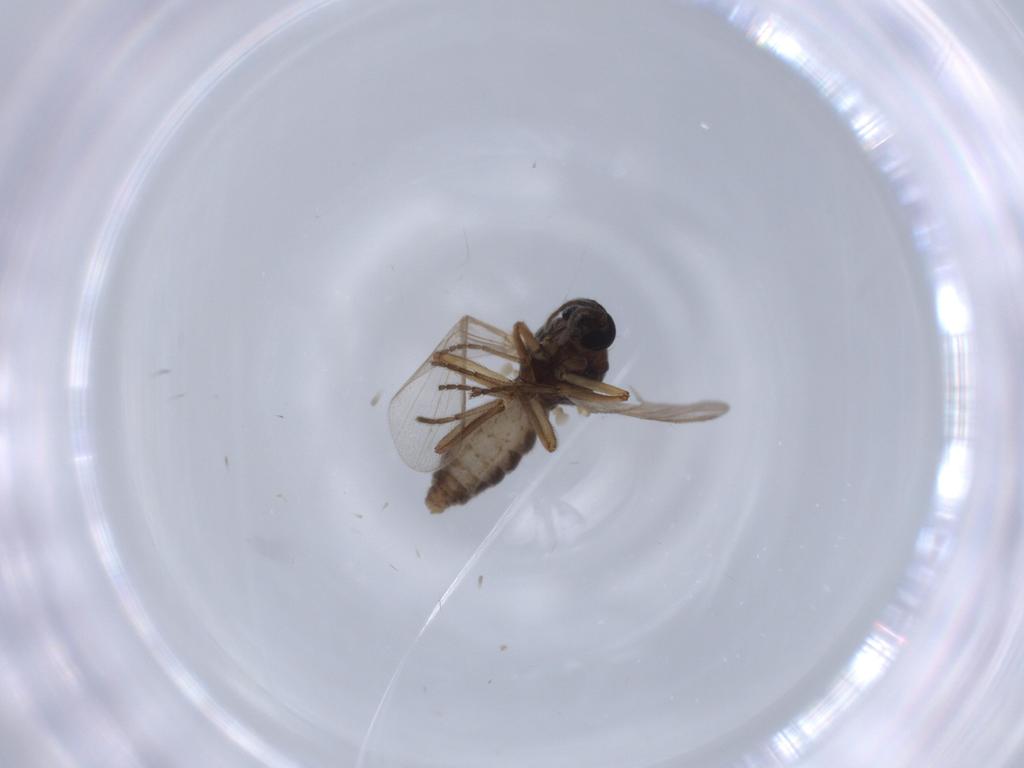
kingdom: Animalia
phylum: Arthropoda
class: Insecta
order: Diptera
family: Ceratopogonidae
